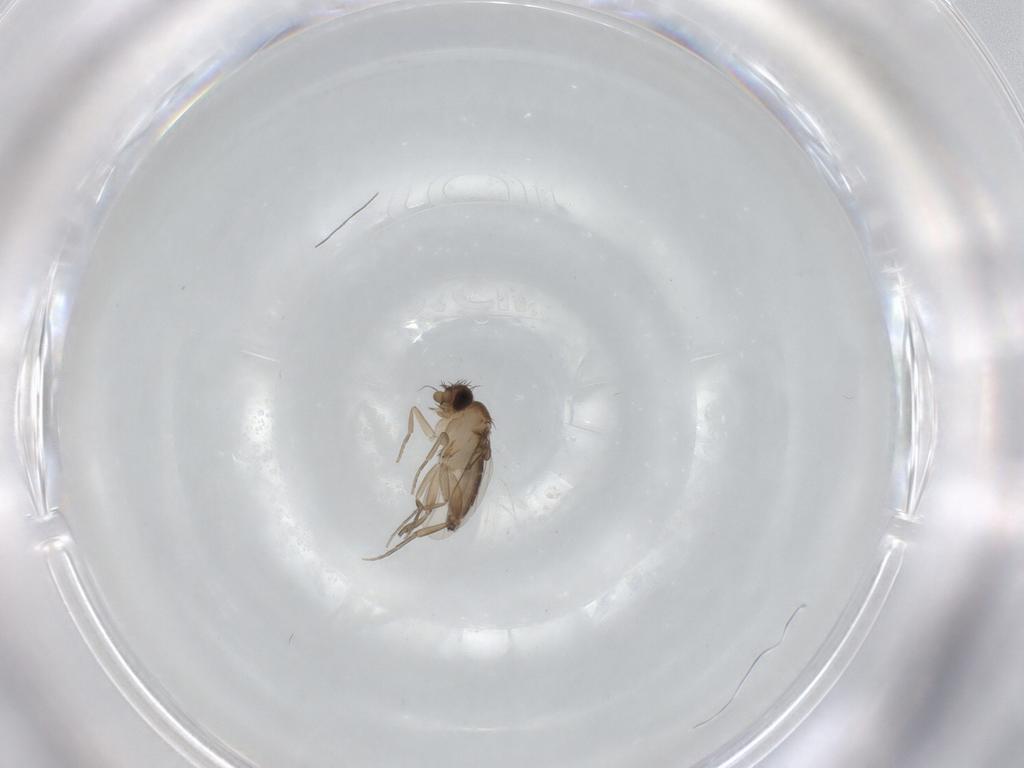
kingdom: Animalia
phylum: Arthropoda
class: Insecta
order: Diptera
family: Phoridae
